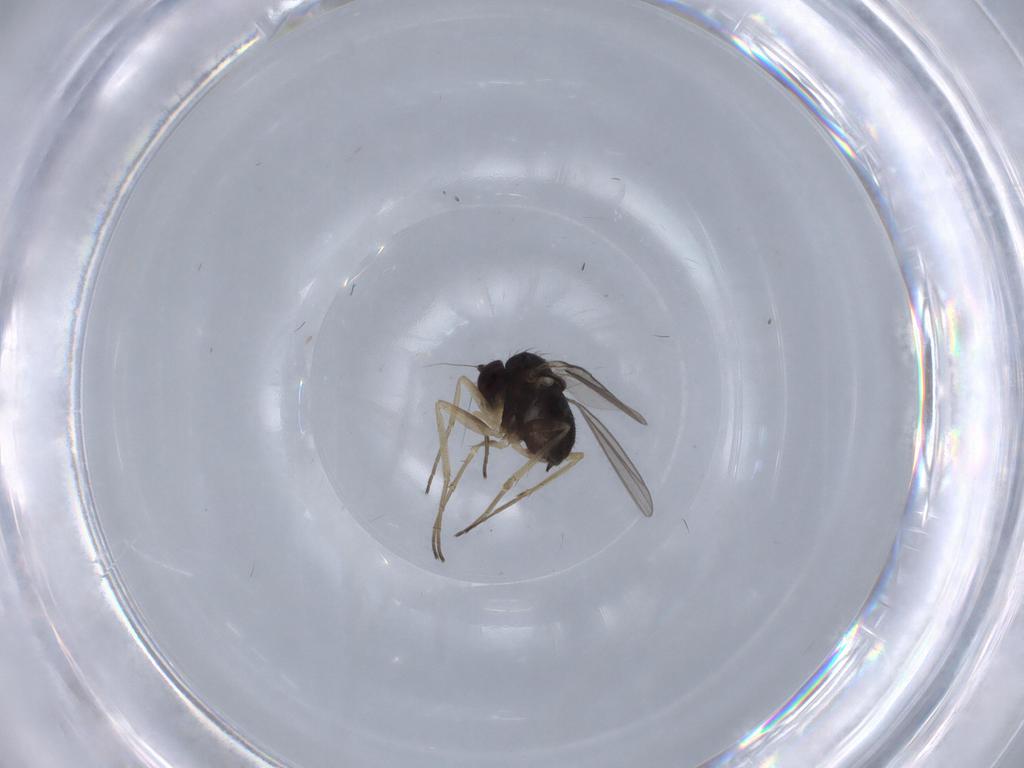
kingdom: Animalia
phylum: Arthropoda
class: Insecta
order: Diptera
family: Dolichopodidae
